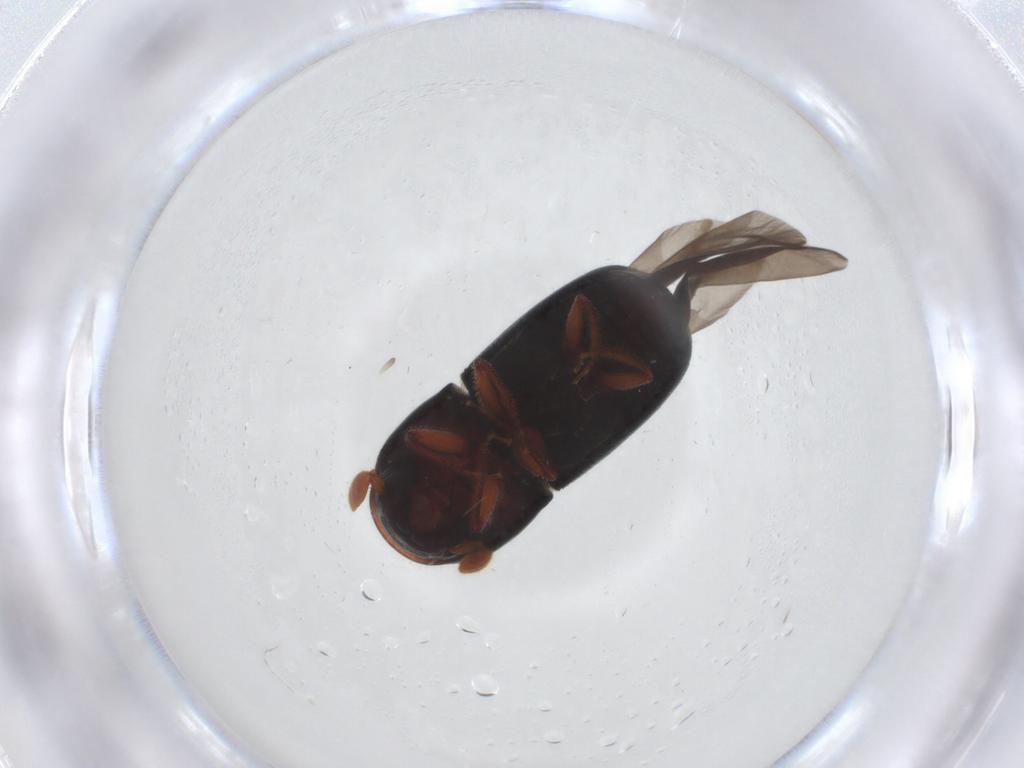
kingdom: Animalia
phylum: Arthropoda
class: Insecta
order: Coleoptera
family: Curculionidae
